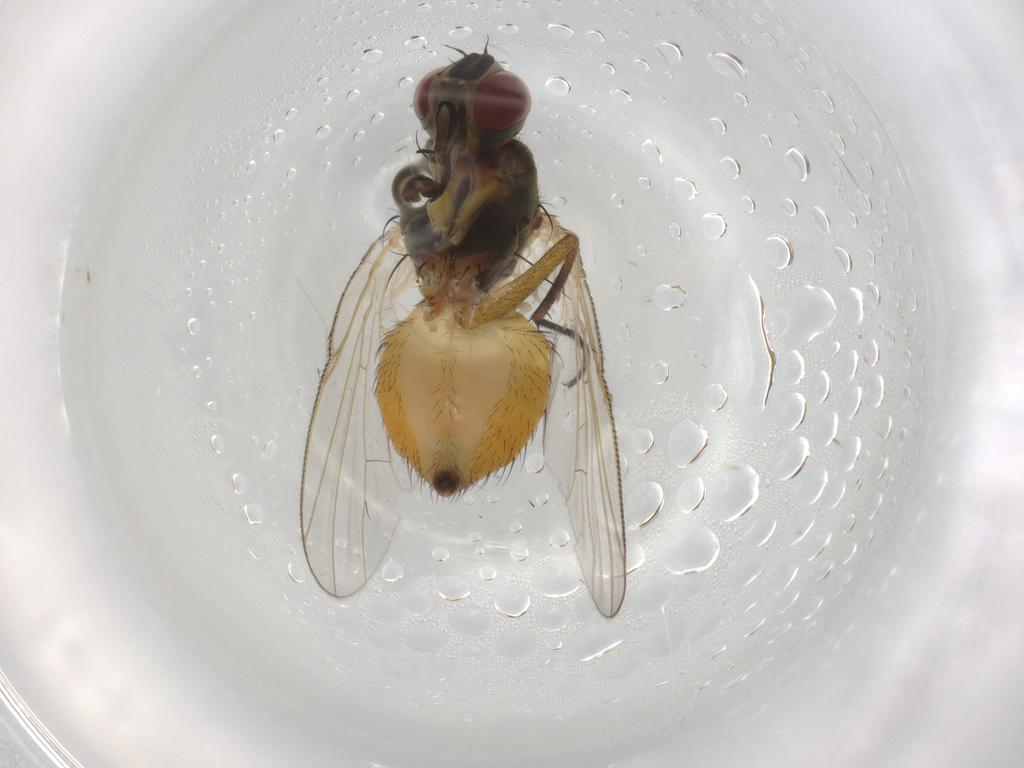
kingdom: Animalia
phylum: Arthropoda
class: Insecta
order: Diptera
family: Muscidae
